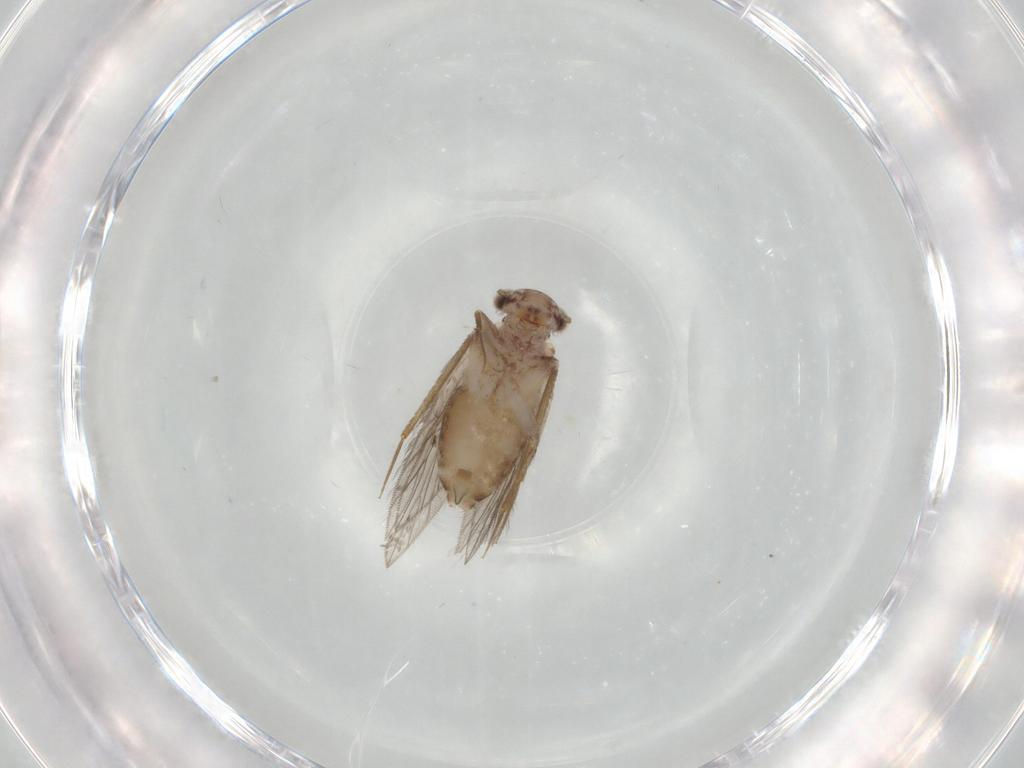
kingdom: Animalia
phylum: Arthropoda
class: Insecta
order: Psocodea
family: Lepidopsocidae
